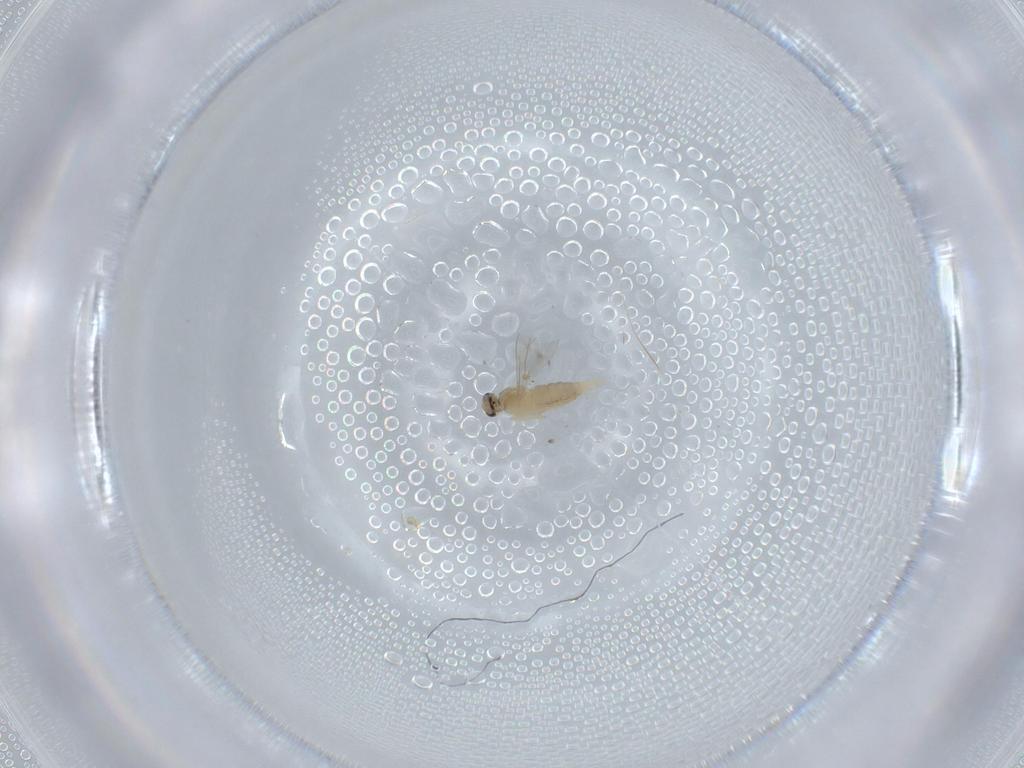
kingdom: Animalia
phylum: Arthropoda
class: Insecta
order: Diptera
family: Cecidomyiidae
